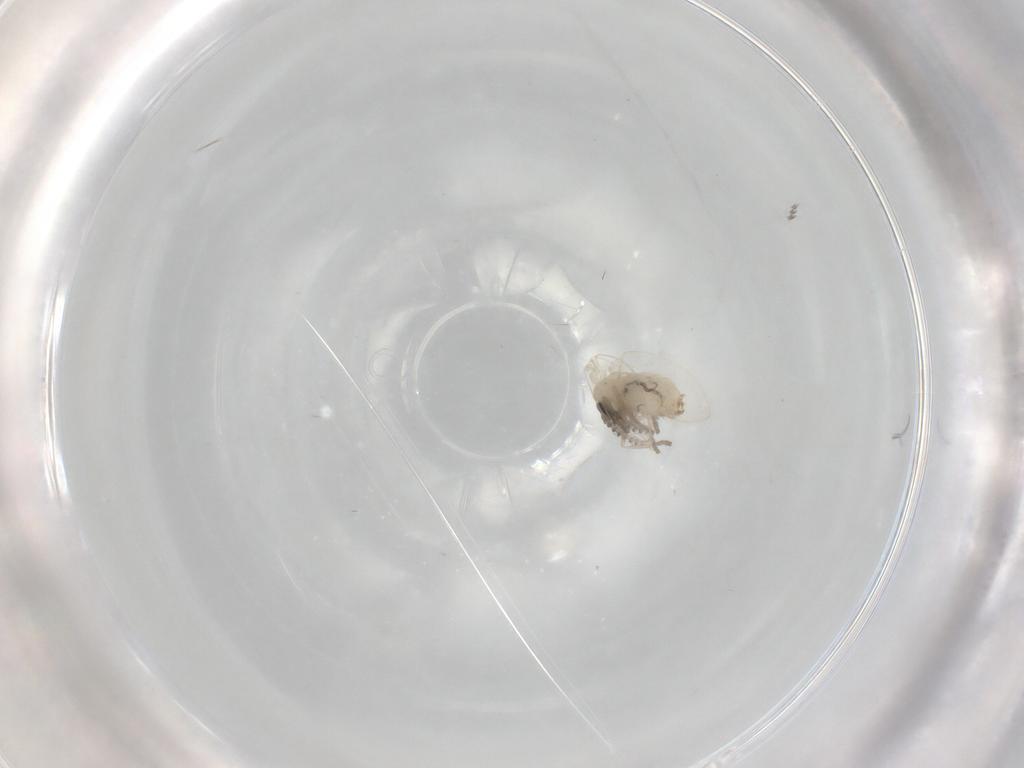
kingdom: Animalia
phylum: Arthropoda
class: Insecta
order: Diptera
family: Psychodidae
